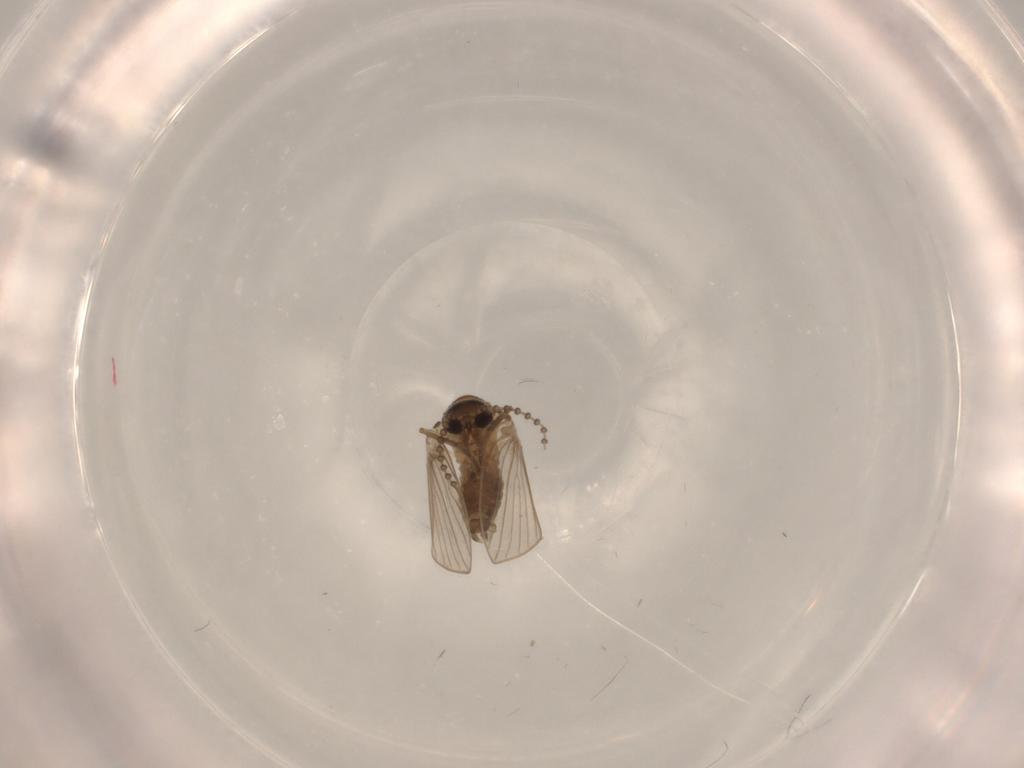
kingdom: Animalia
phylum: Arthropoda
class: Insecta
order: Diptera
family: Psychodidae
